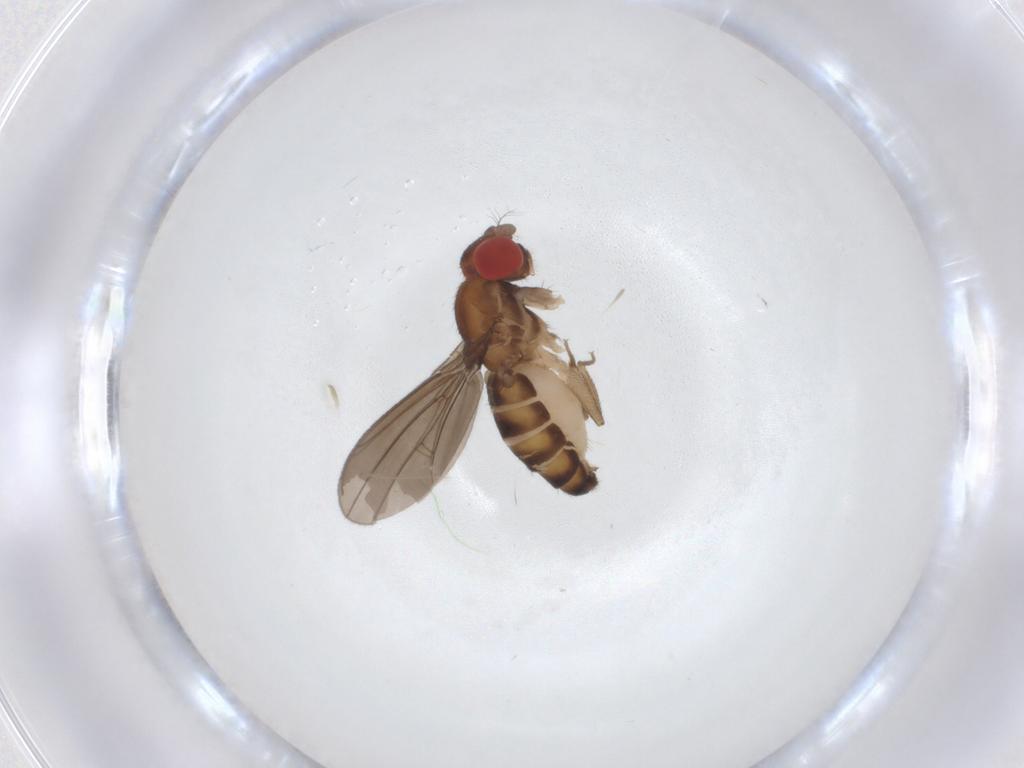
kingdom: Animalia
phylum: Arthropoda
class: Insecta
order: Diptera
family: Drosophilidae
